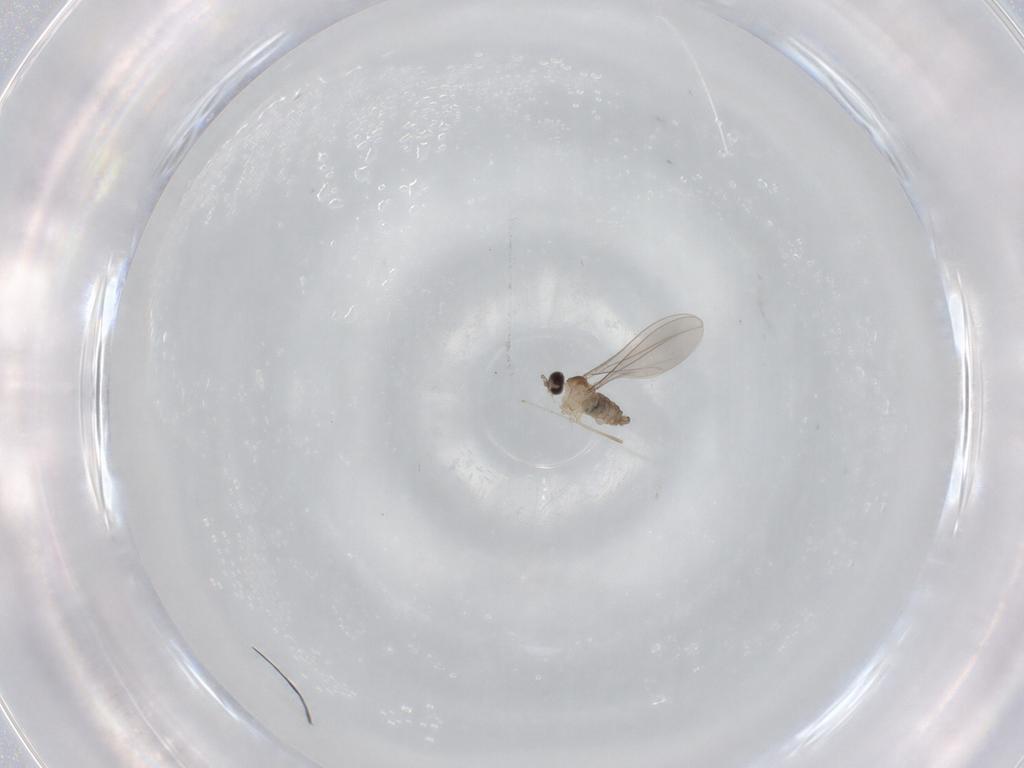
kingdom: Animalia
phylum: Arthropoda
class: Insecta
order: Diptera
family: Cecidomyiidae
